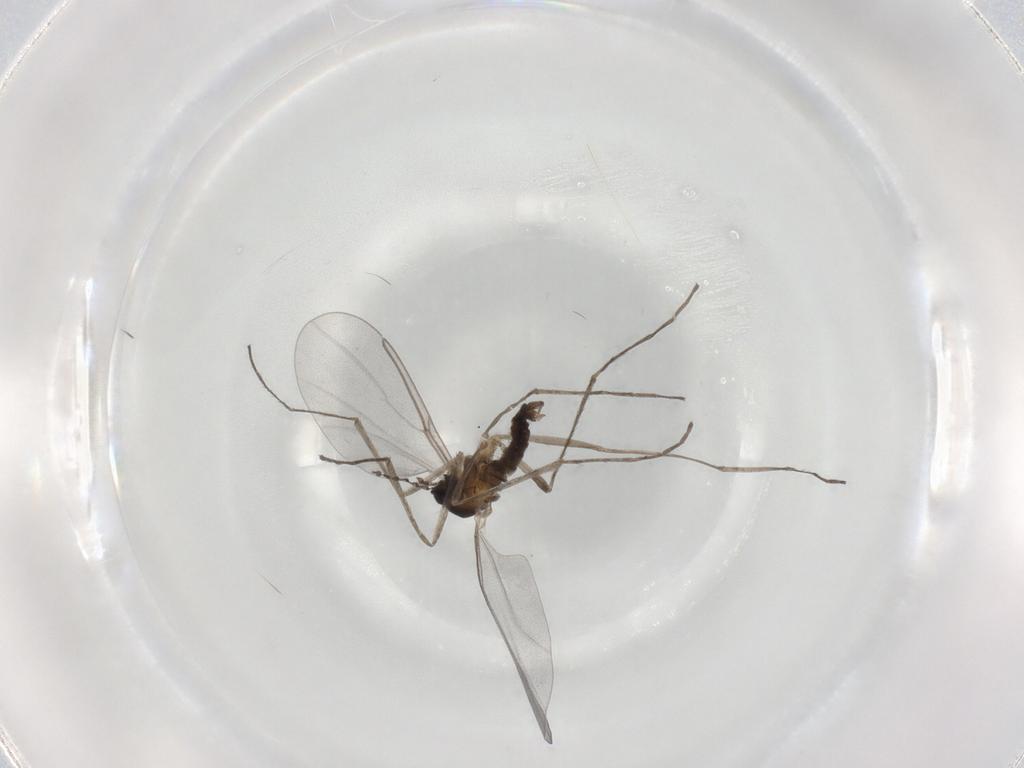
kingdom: Animalia
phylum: Arthropoda
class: Insecta
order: Diptera
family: Cecidomyiidae
